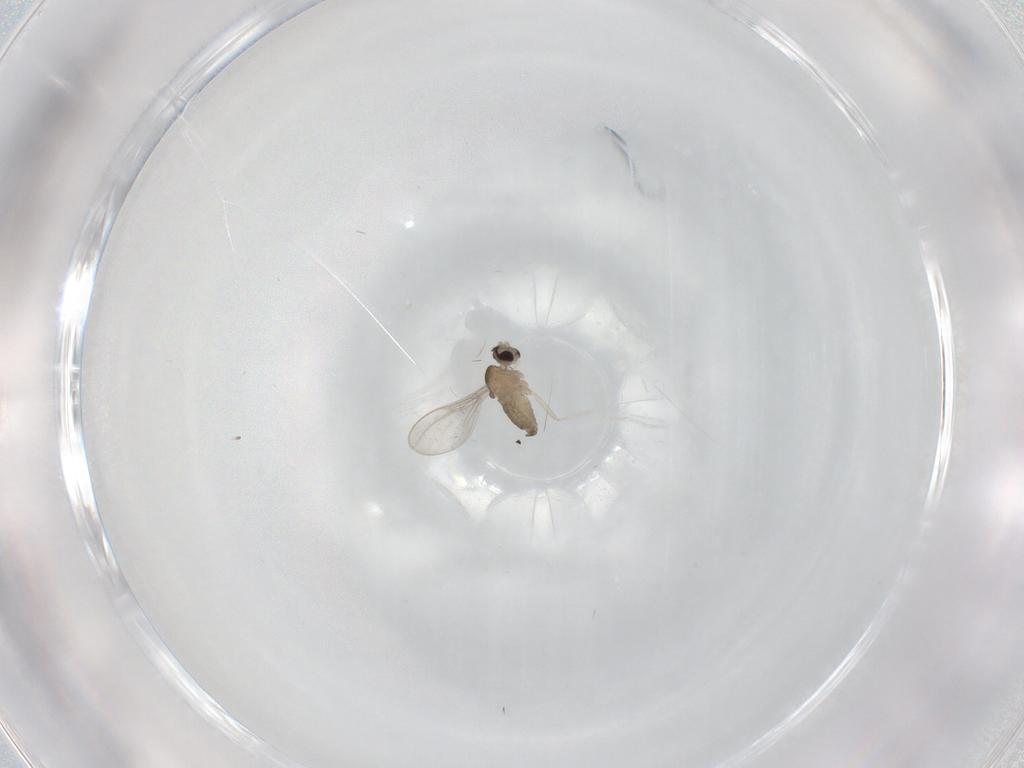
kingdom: Animalia
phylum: Arthropoda
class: Insecta
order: Diptera
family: Cecidomyiidae
